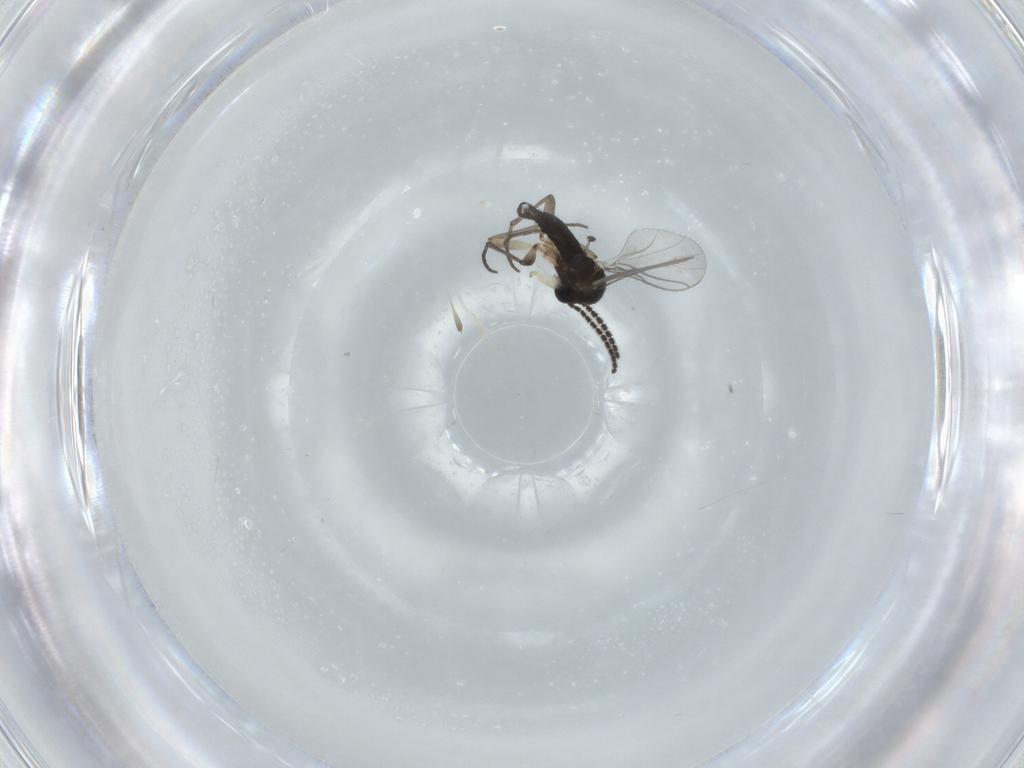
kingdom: Animalia
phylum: Arthropoda
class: Insecta
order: Diptera
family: Sciaridae
